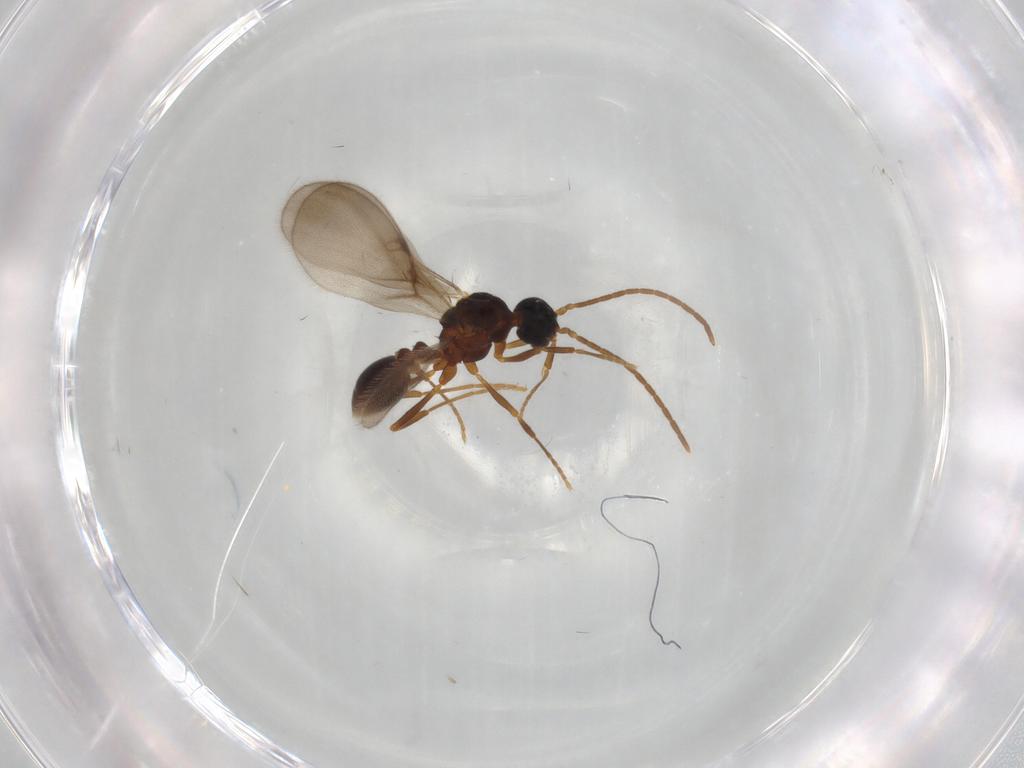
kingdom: Animalia
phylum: Arthropoda
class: Insecta
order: Hymenoptera
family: Formicidae
